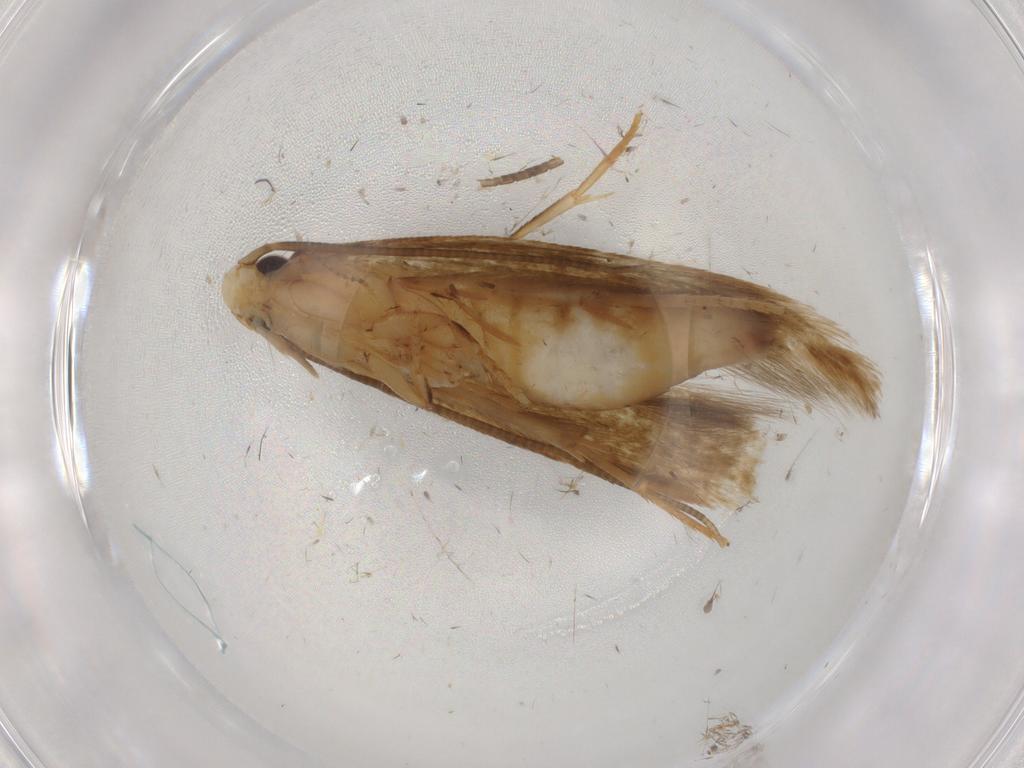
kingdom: Animalia
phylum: Arthropoda
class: Insecta
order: Lepidoptera
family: Tineidae
